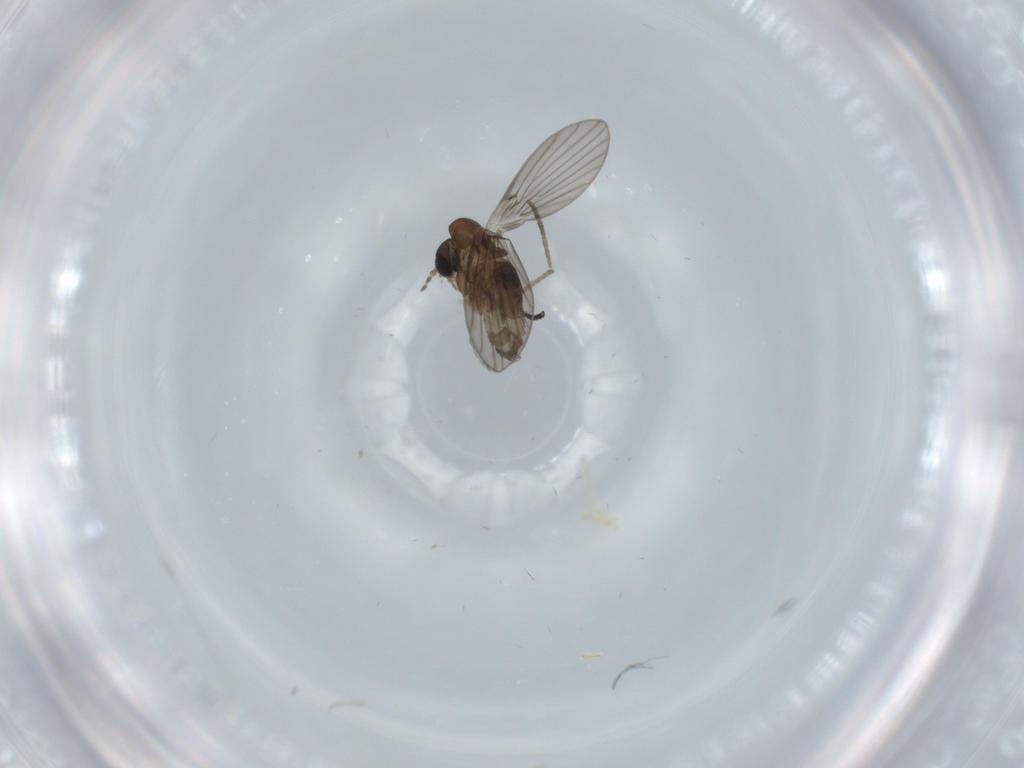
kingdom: Animalia
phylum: Arthropoda
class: Insecta
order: Diptera
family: Psychodidae
